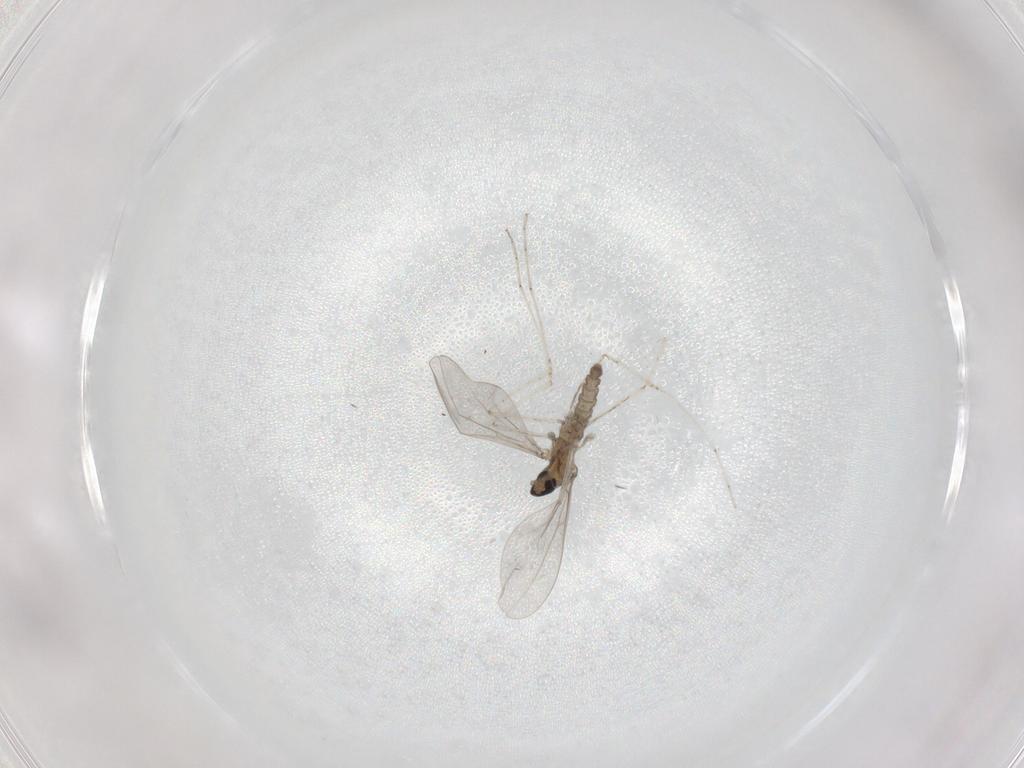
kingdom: Animalia
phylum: Arthropoda
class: Insecta
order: Diptera
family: Cecidomyiidae
